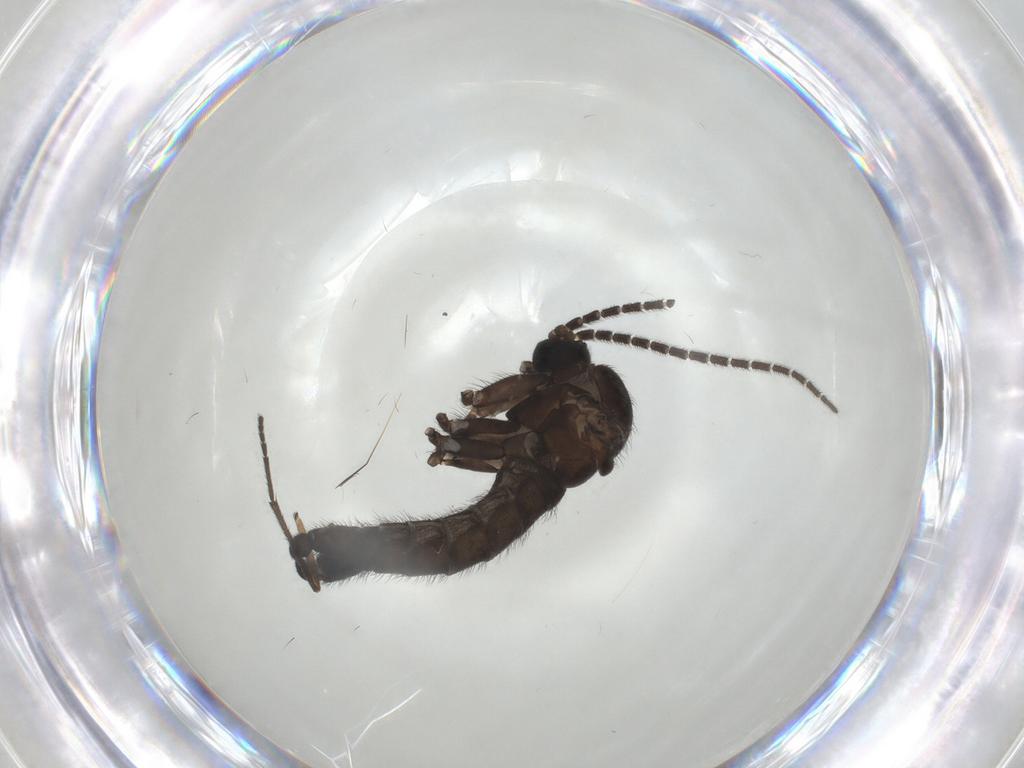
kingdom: Animalia
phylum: Arthropoda
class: Insecta
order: Diptera
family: Sciaridae
